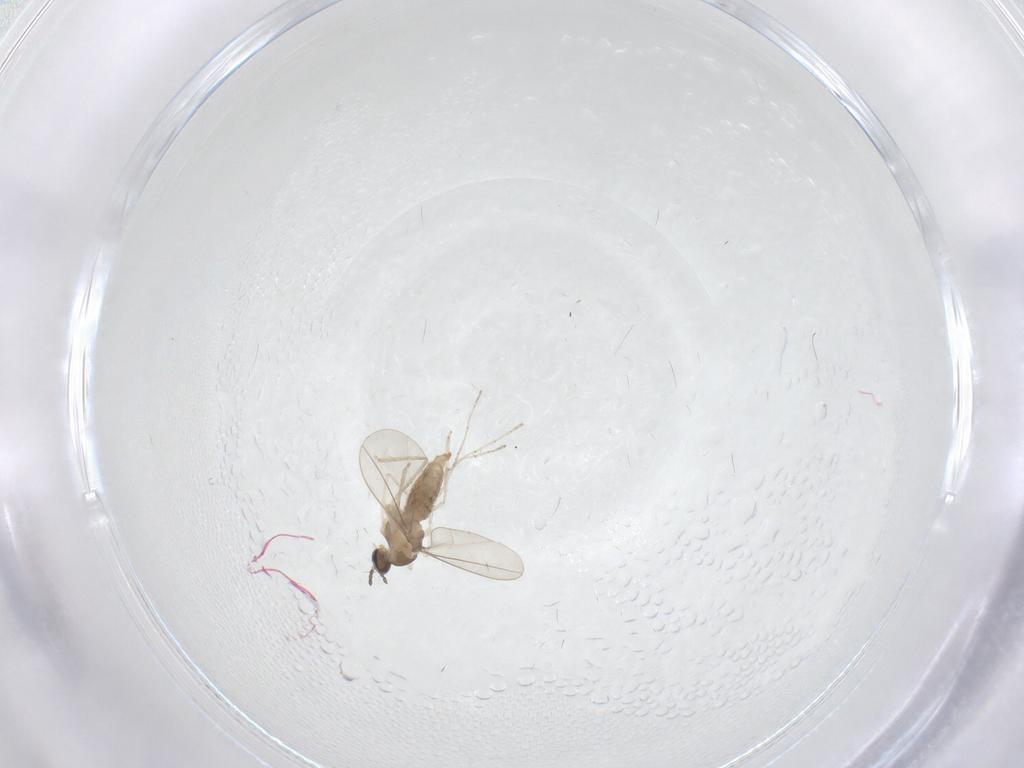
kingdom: Animalia
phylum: Arthropoda
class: Insecta
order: Diptera
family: Cecidomyiidae
